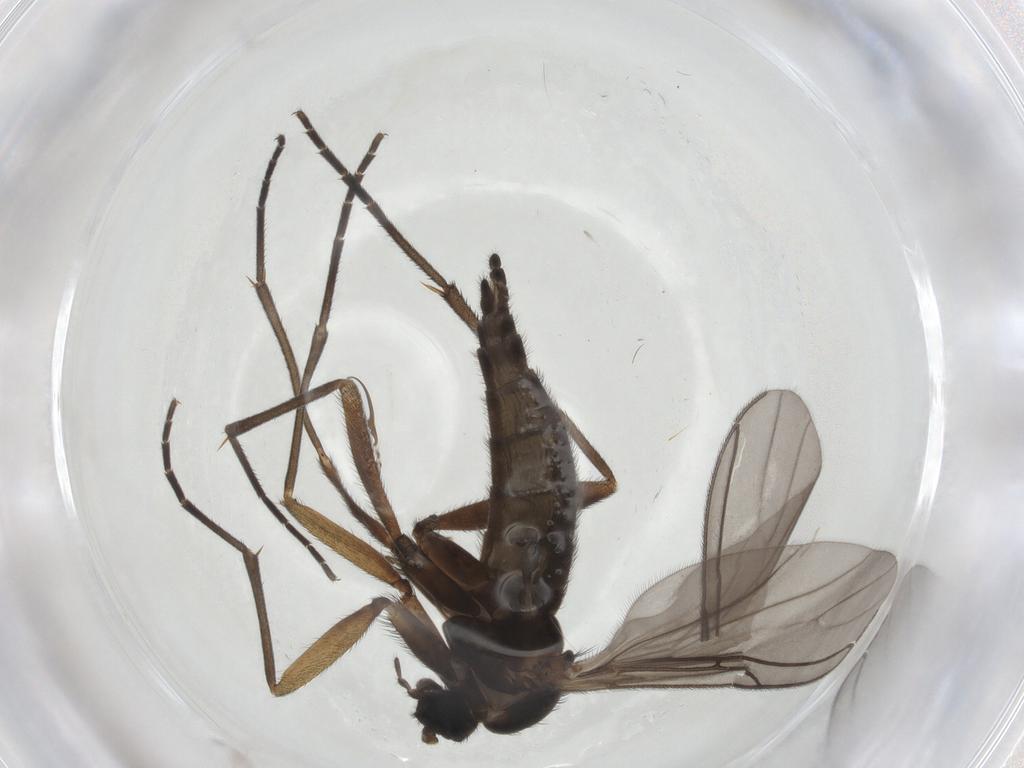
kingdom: Animalia
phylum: Arthropoda
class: Insecta
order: Diptera
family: Sciaridae
